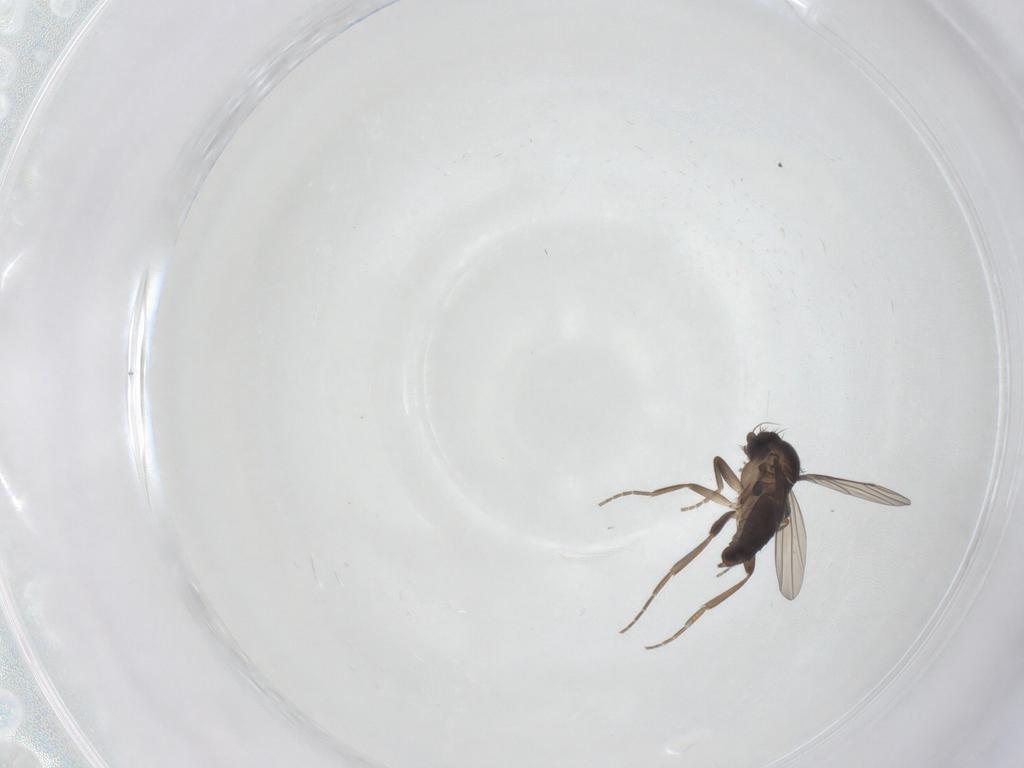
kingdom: Animalia
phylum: Arthropoda
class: Insecta
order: Diptera
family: Phoridae
